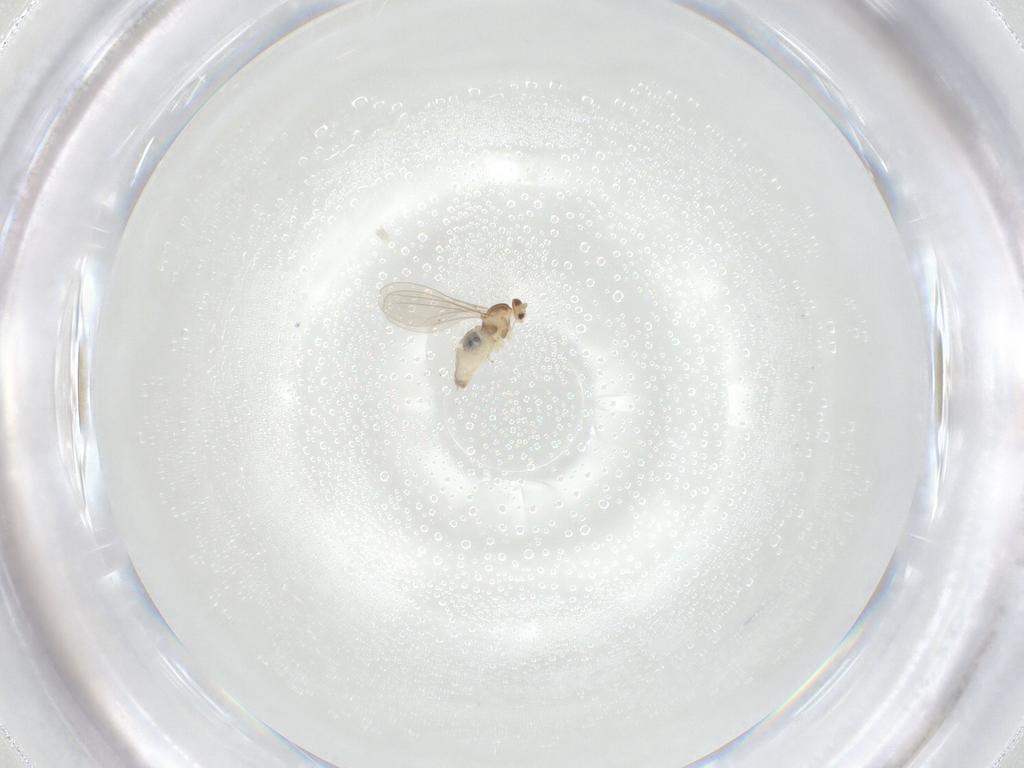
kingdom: Animalia
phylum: Arthropoda
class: Insecta
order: Diptera
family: Cecidomyiidae
